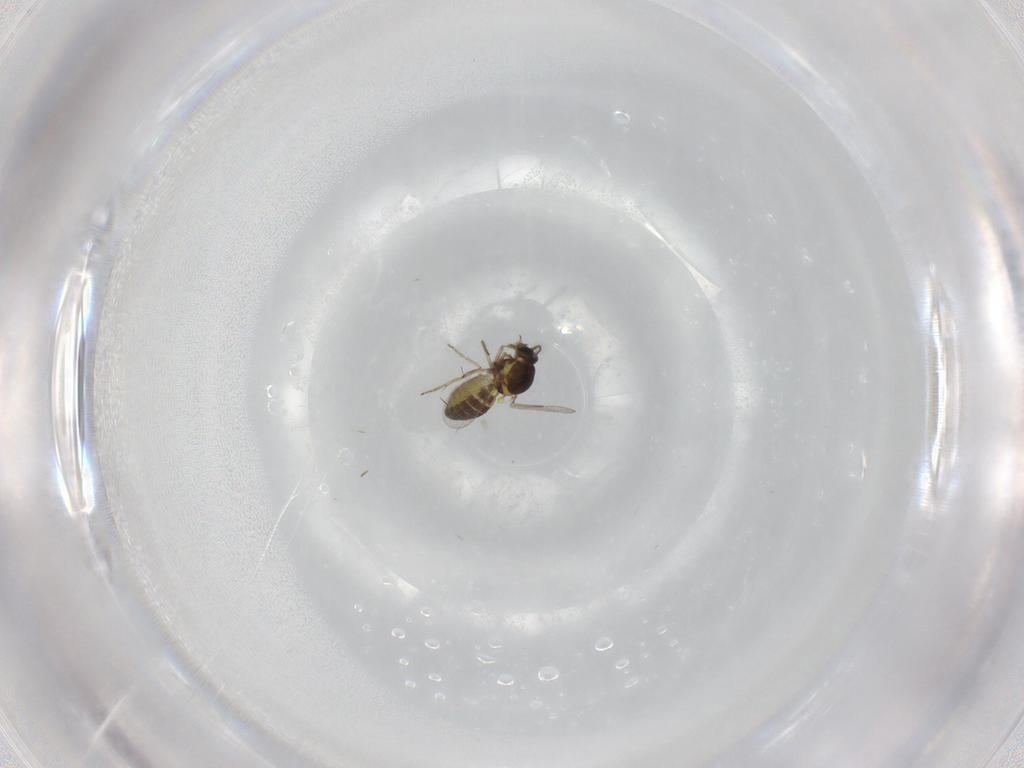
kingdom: Animalia
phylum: Arthropoda
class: Insecta
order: Diptera
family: Ceratopogonidae
